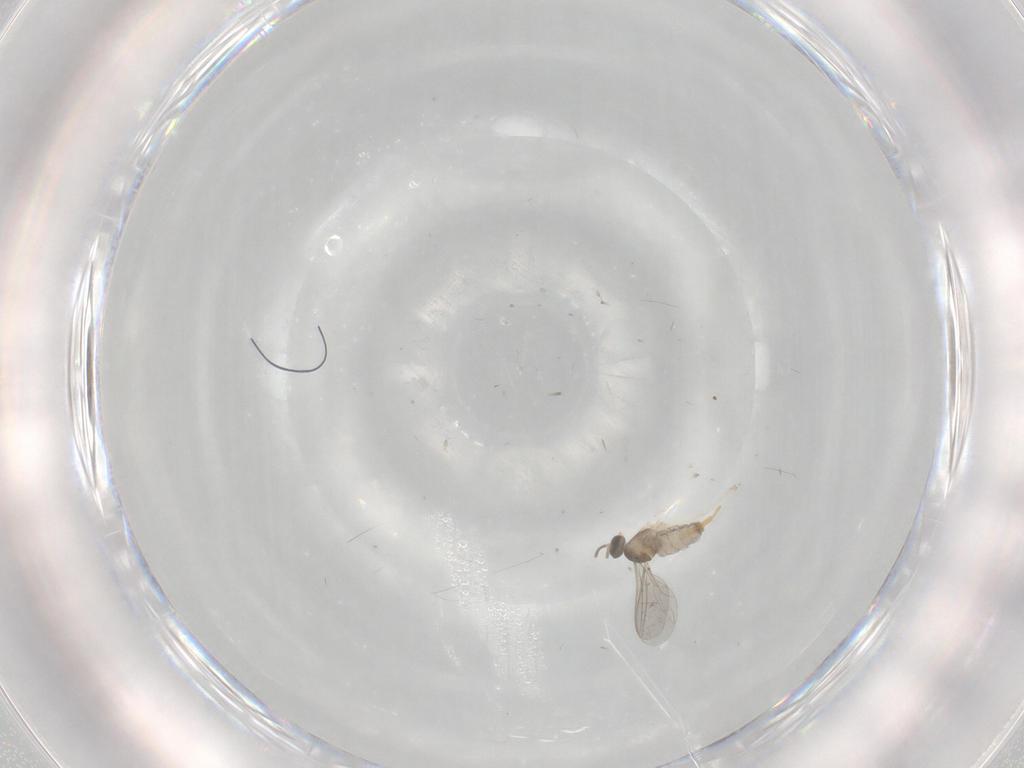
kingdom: Animalia
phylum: Arthropoda
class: Insecta
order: Diptera
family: Cecidomyiidae
